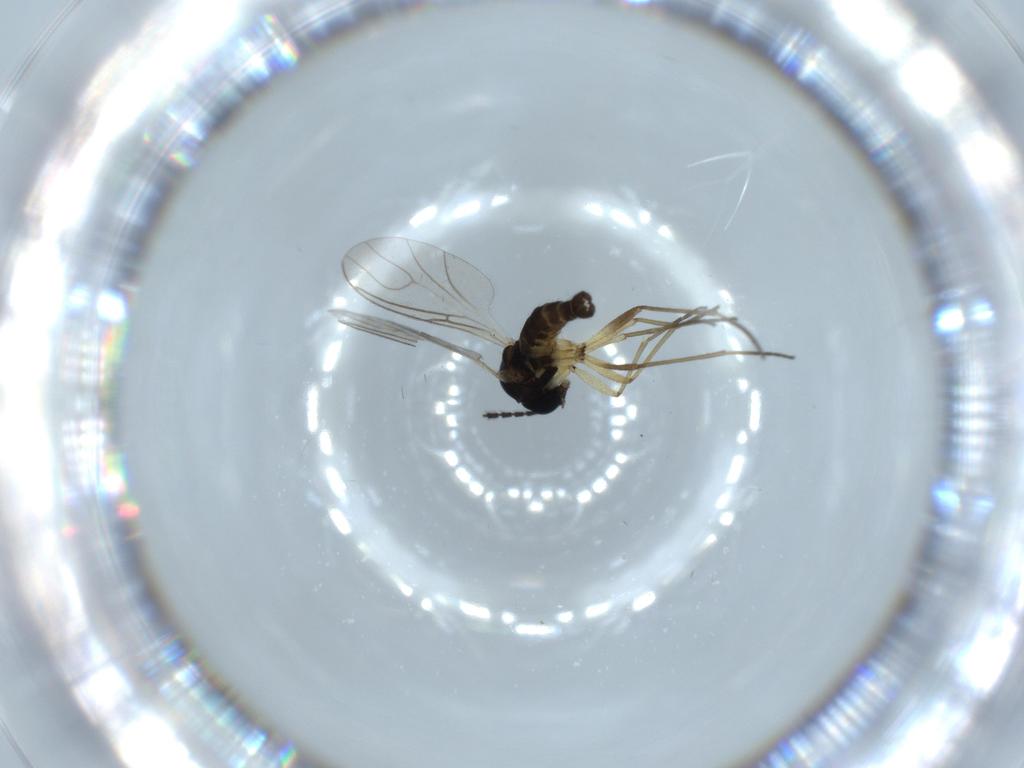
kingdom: Animalia
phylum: Arthropoda
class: Insecta
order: Diptera
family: Sciaridae
